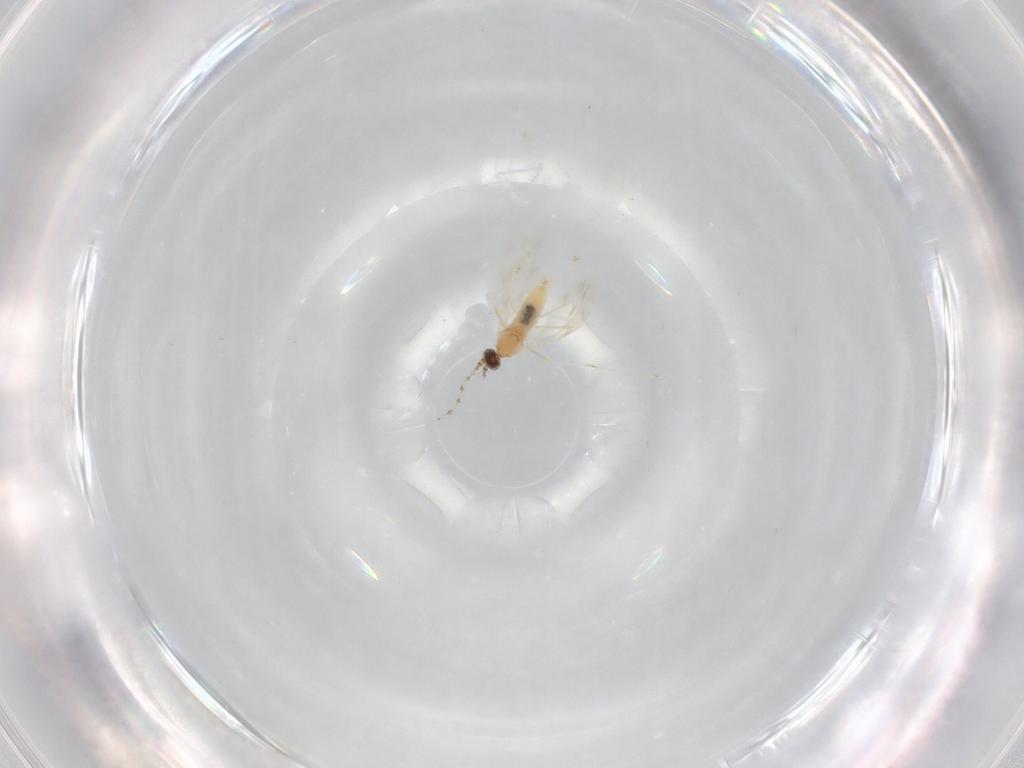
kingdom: Animalia
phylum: Arthropoda
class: Insecta
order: Diptera
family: Cecidomyiidae
